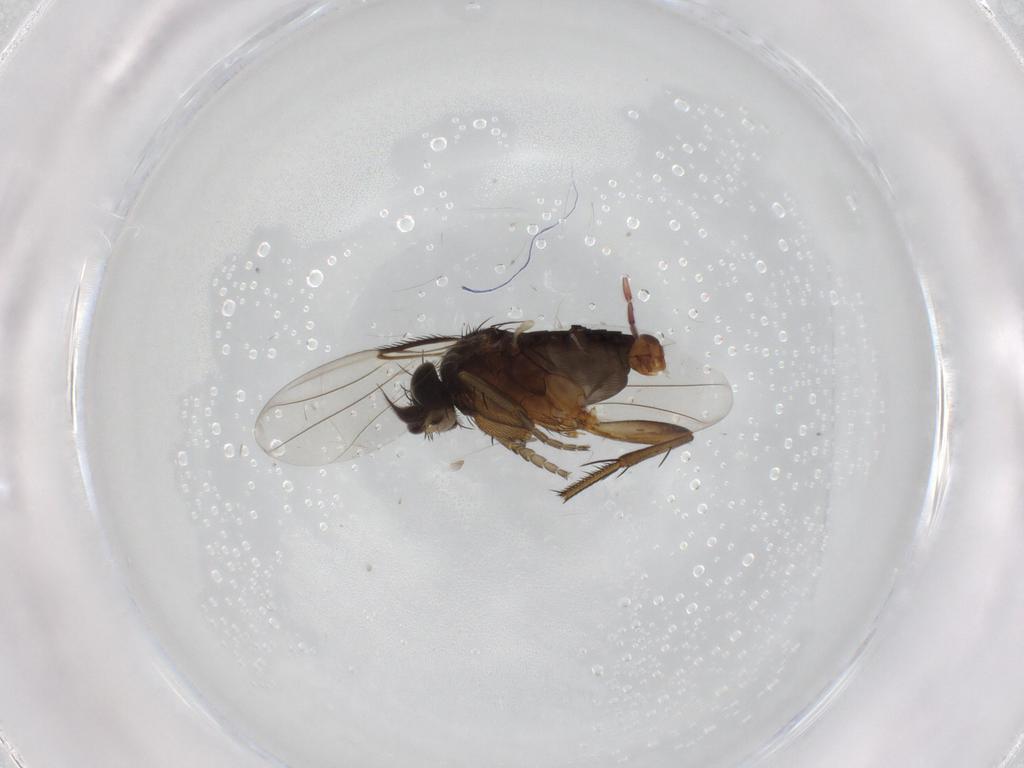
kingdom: Animalia
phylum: Arthropoda
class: Insecta
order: Diptera
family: Phoridae
